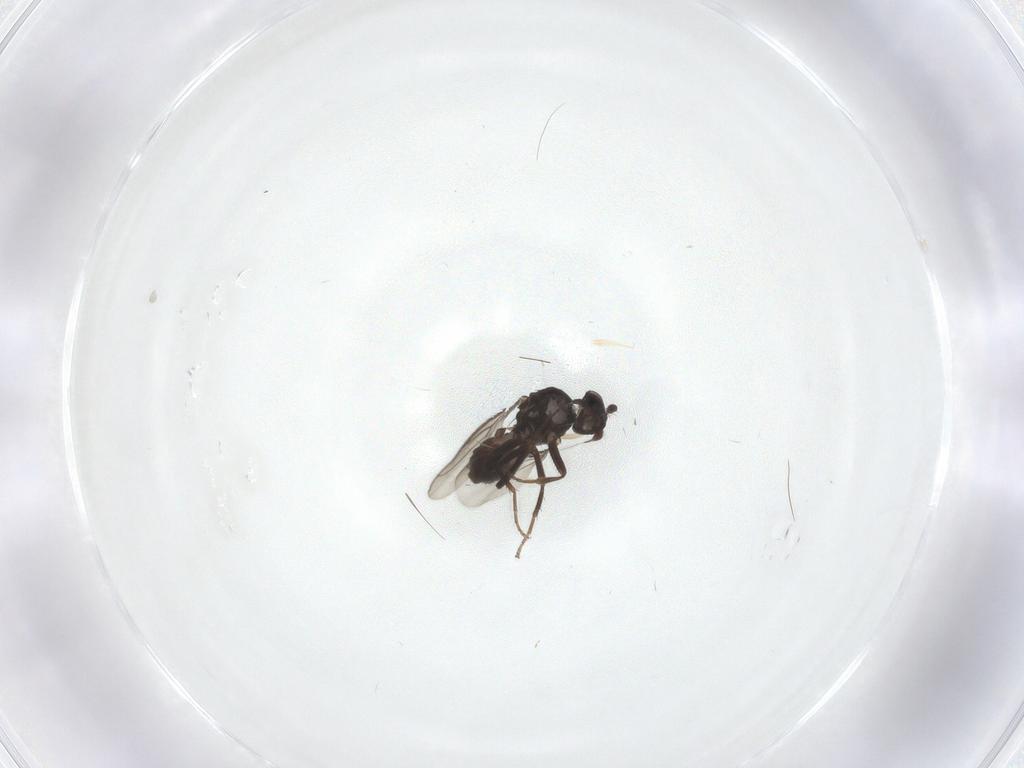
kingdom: Animalia
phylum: Arthropoda
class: Insecta
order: Diptera
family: Sphaeroceridae
